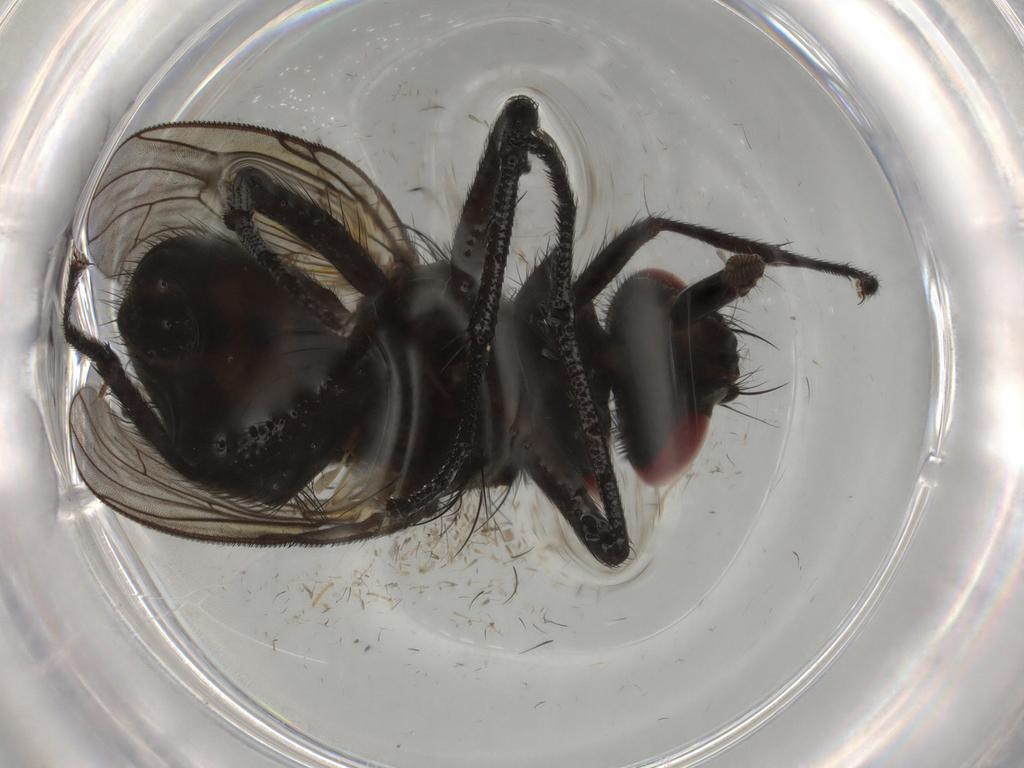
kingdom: Animalia
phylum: Arthropoda
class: Insecta
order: Diptera
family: Muscidae
